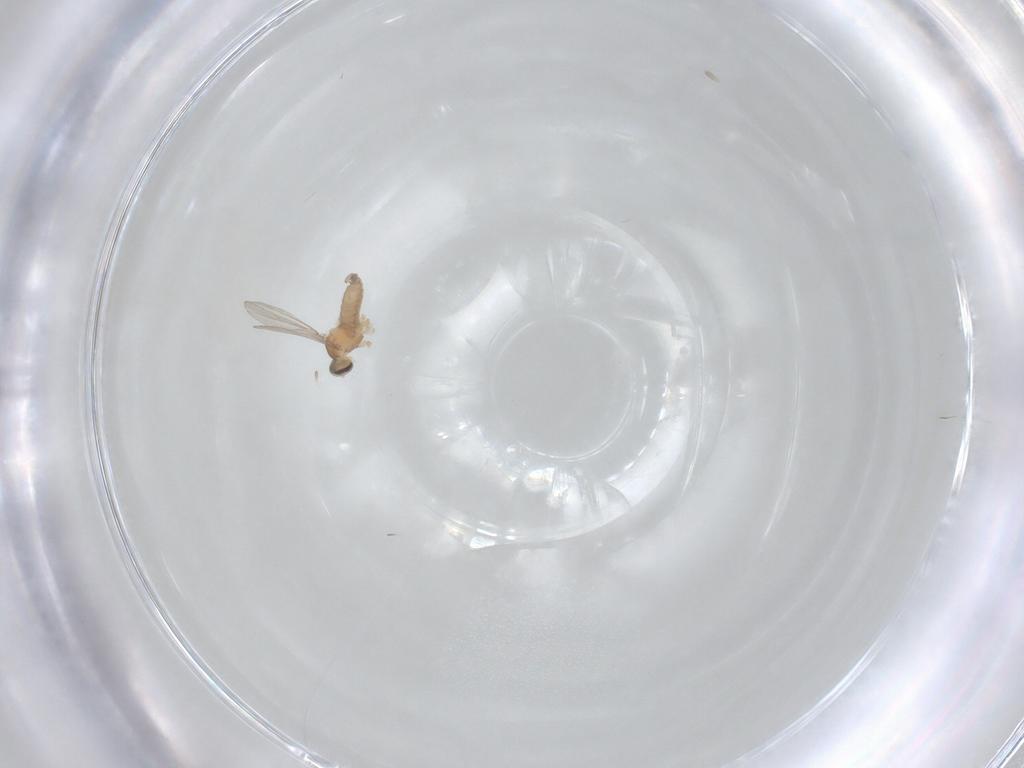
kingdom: Animalia
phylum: Arthropoda
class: Insecta
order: Diptera
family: Cecidomyiidae
